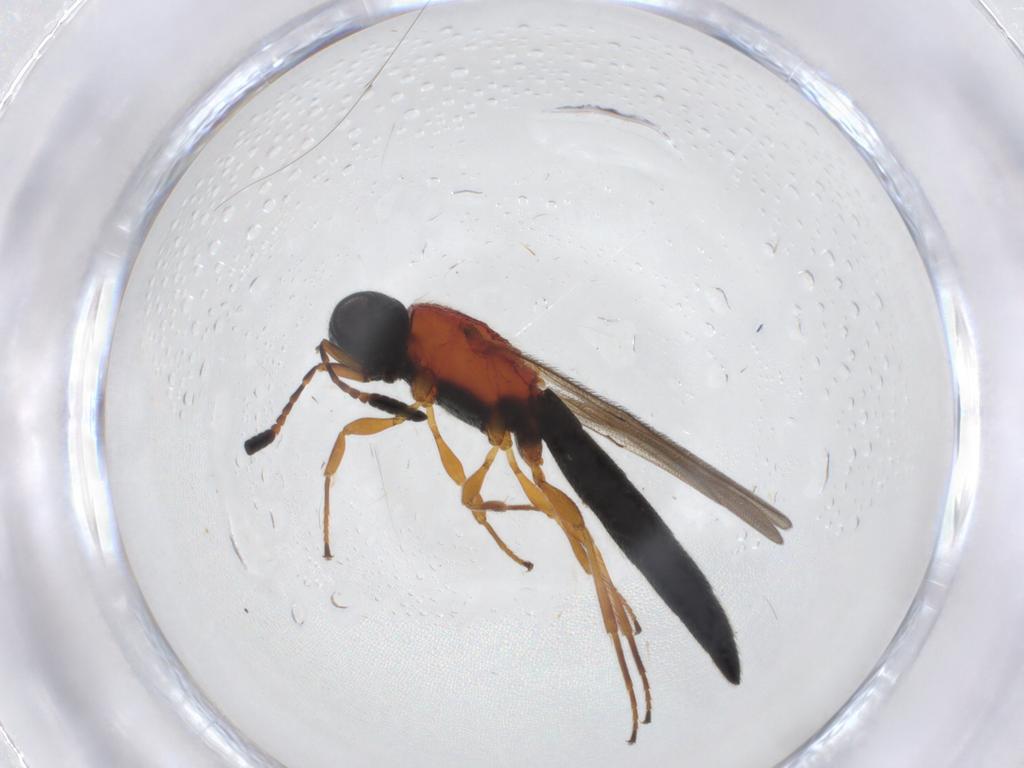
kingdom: Animalia
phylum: Arthropoda
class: Insecta
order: Hymenoptera
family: Scelionidae
